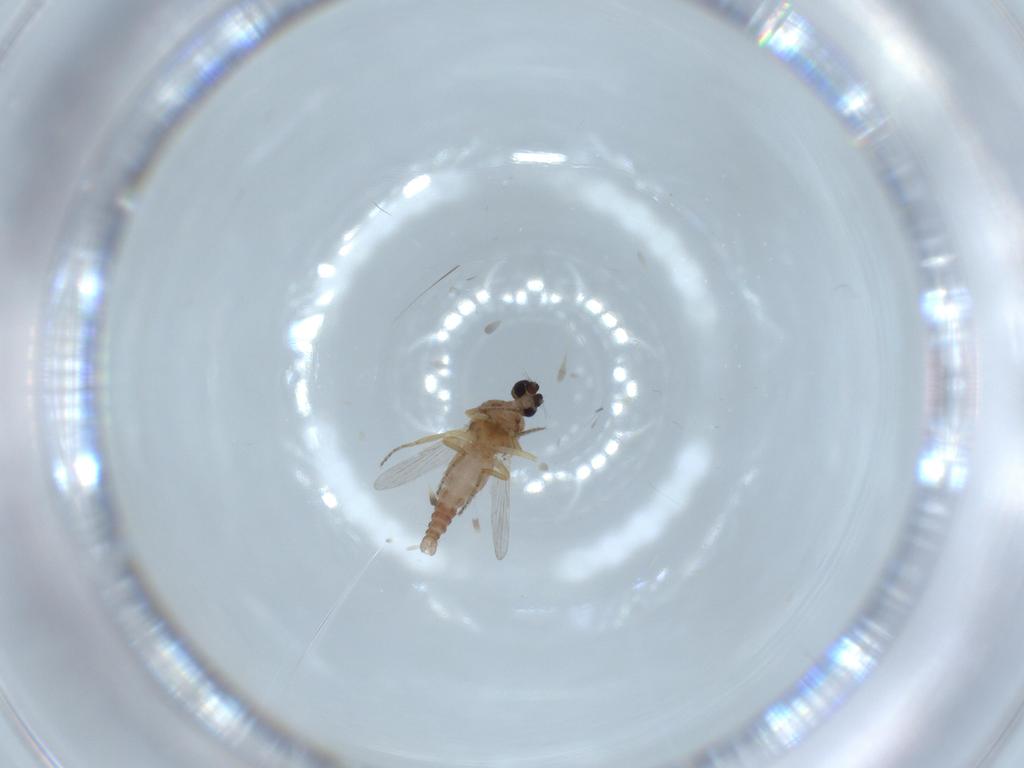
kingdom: Animalia
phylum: Arthropoda
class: Insecta
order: Diptera
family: Ceratopogonidae
